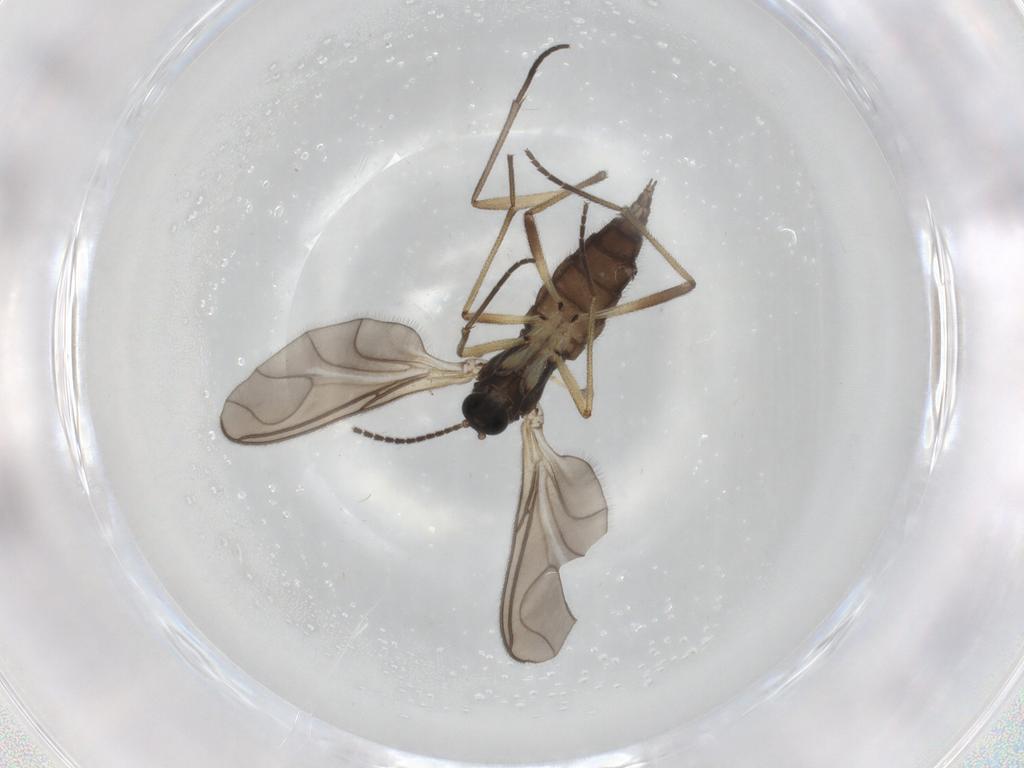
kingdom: Animalia
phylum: Arthropoda
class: Insecta
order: Diptera
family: Sciaridae
